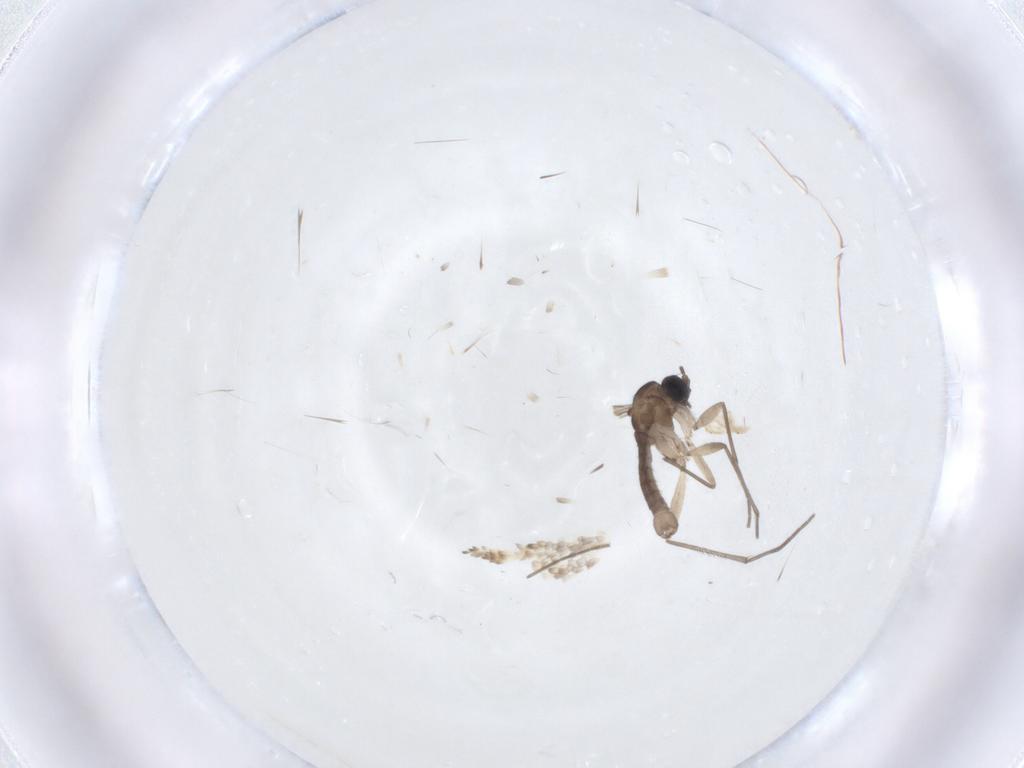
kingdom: Animalia
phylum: Arthropoda
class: Insecta
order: Diptera
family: Sciaridae
